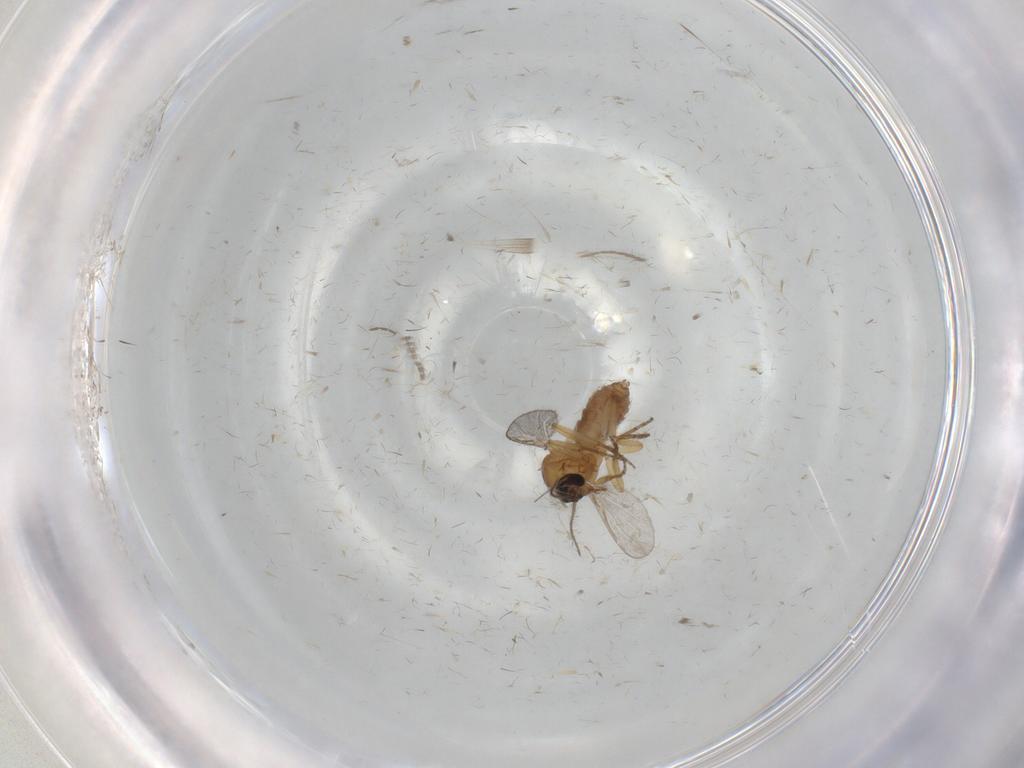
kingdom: Animalia
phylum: Arthropoda
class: Insecta
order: Diptera
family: Ceratopogonidae
